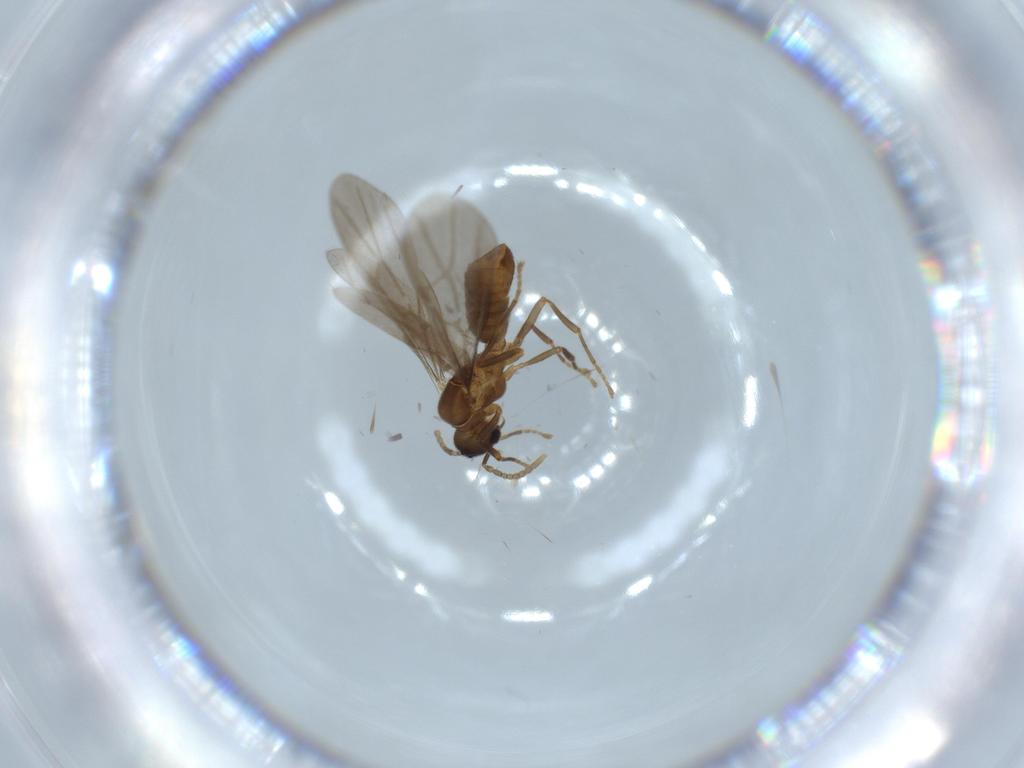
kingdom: Animalia
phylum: Arthropoda
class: Insecta
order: Hymenoptera
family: Formicidae
